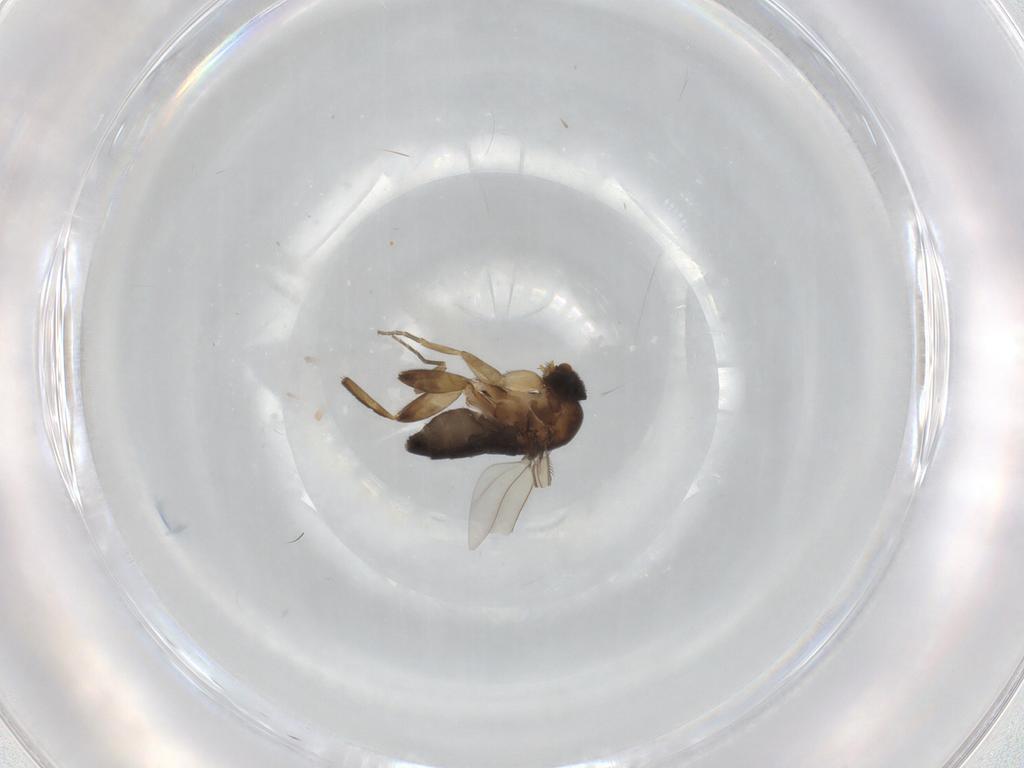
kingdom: Animalia
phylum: Arthropoda
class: Insecta
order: Diptera
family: Phoridae
